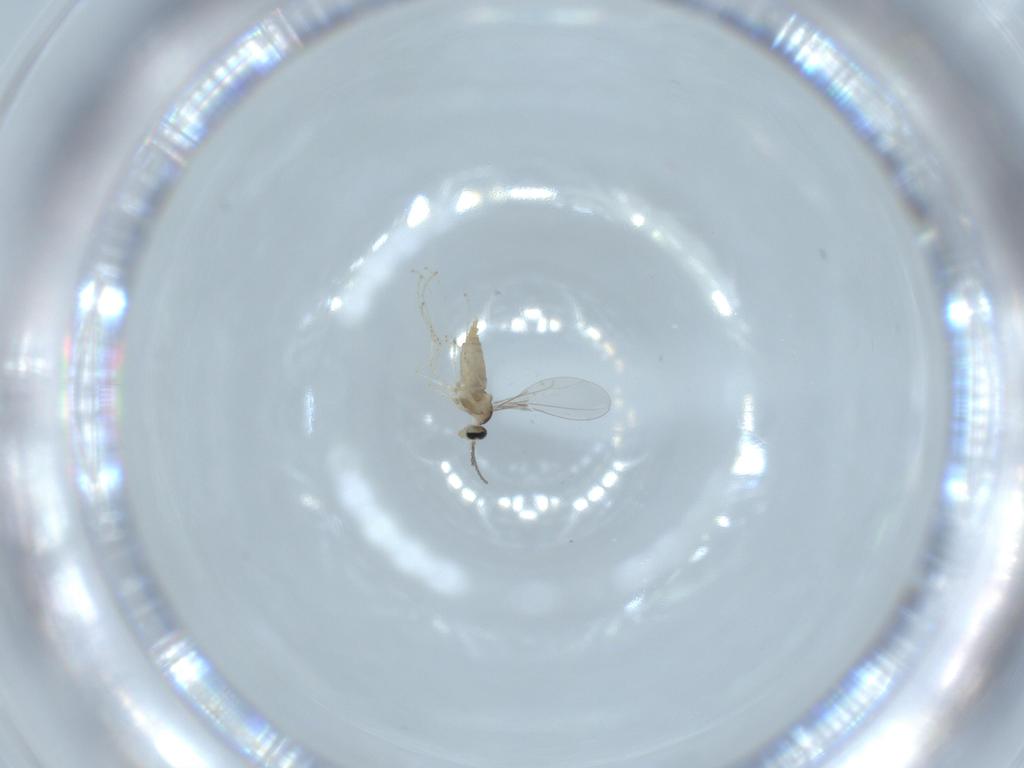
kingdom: Animalia
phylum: Arthropoda
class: Insecta
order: Diptera
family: Cecidomyiidae
